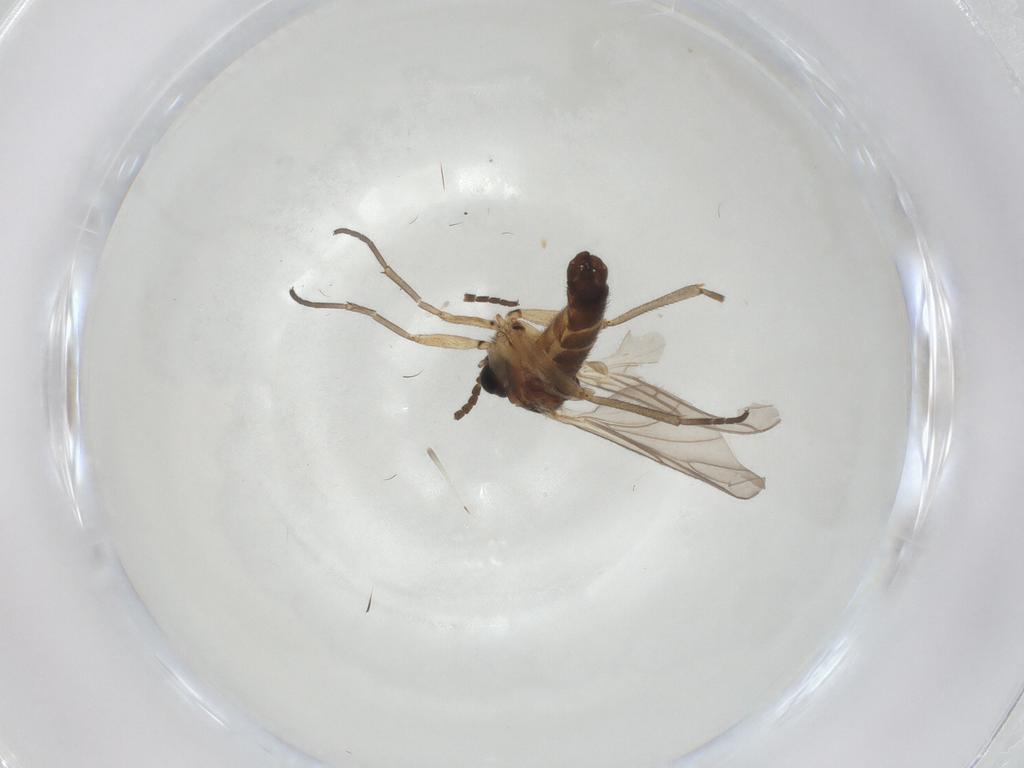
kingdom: Animalia
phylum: Arthropoda
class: Insecta
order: Diptera
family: Sciaridae
